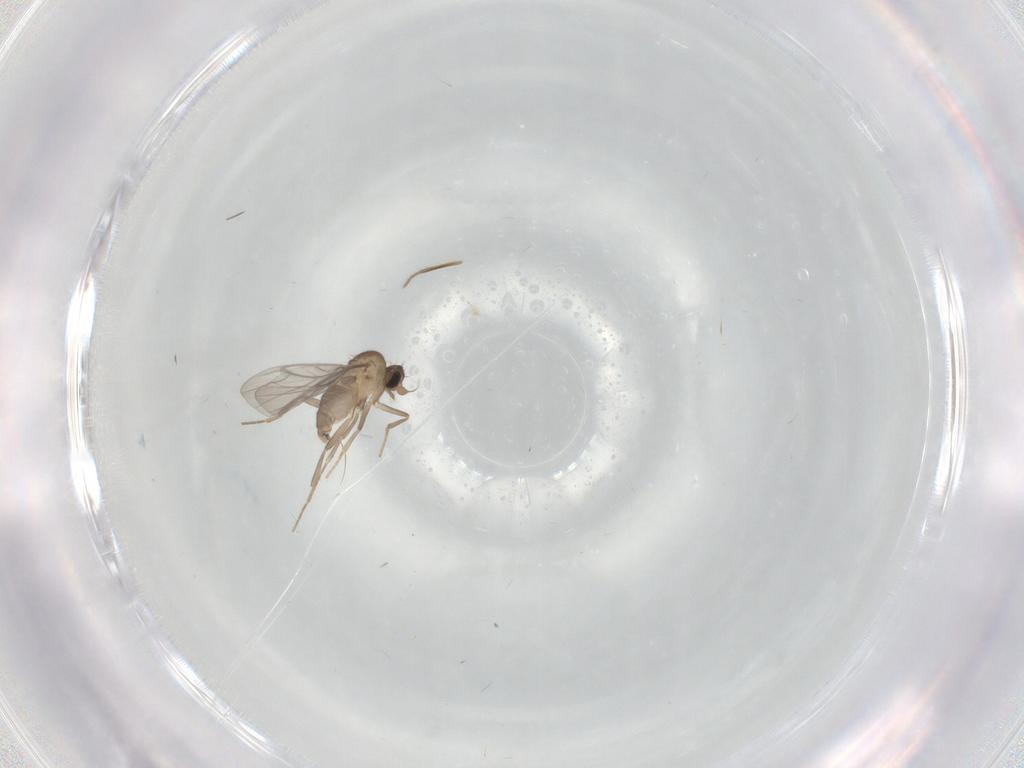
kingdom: Animalia
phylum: Arthropoda
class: Insecta
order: Diptera
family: Ceratopogonidae
